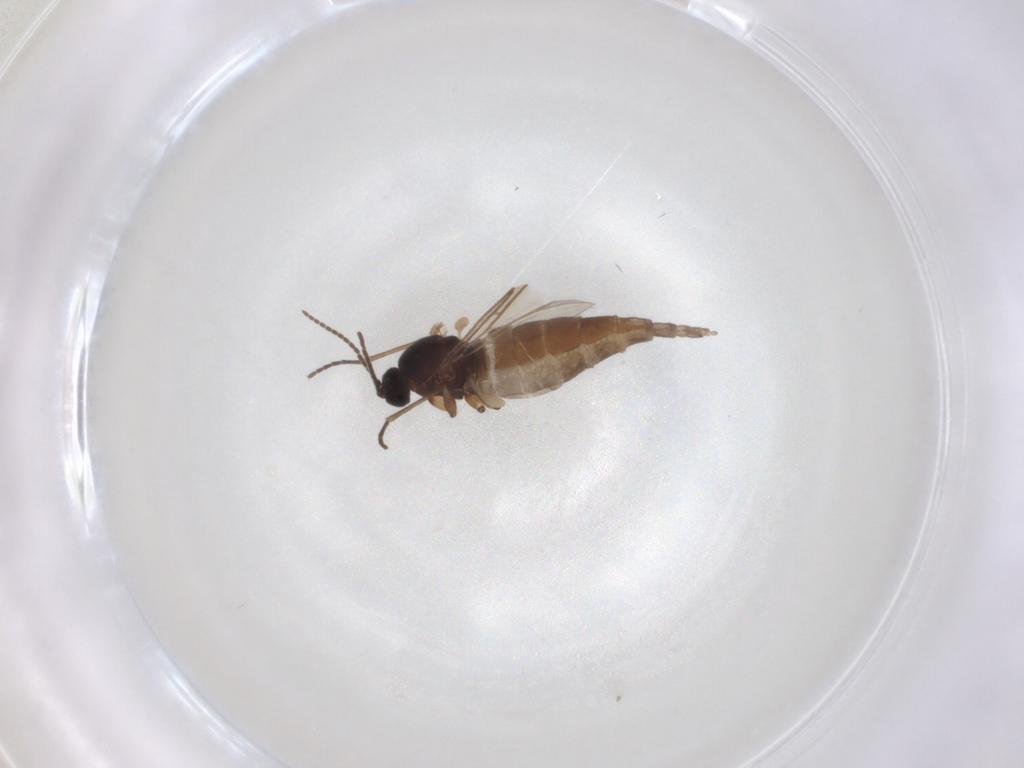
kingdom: Animalia
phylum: Arthropoda
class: Insecta
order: Diptera
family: Sciaridae
